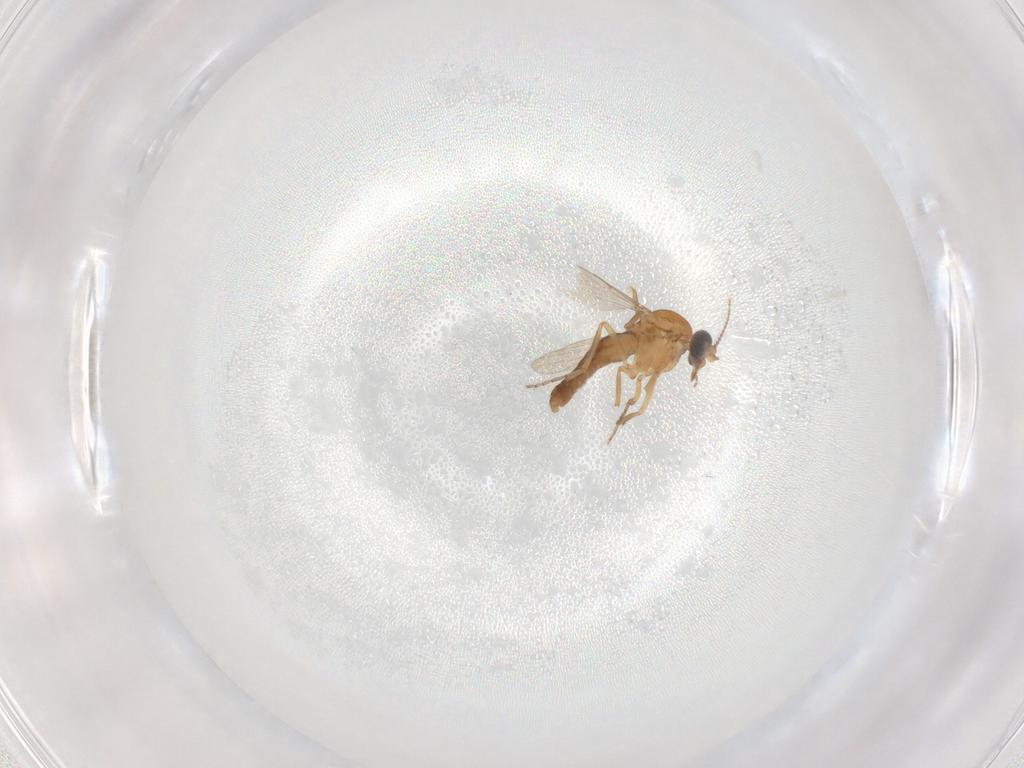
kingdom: Animalia
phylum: Arthropoda
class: Insecta
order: Diptera
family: Ceratopogonidae
